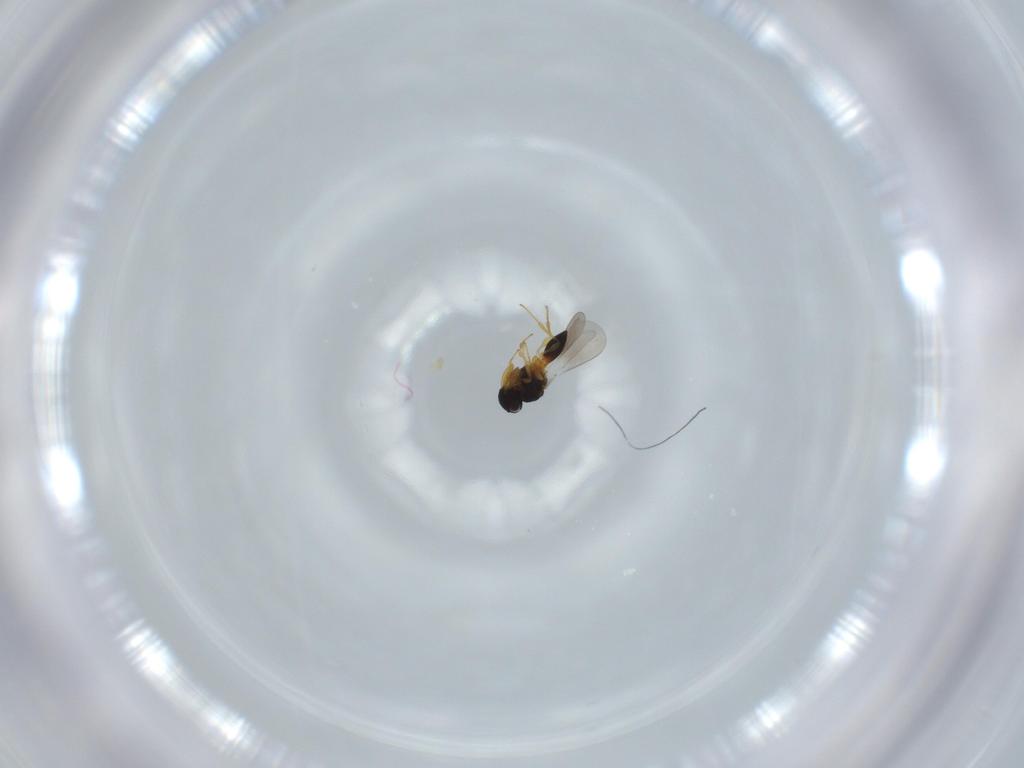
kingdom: Animalia
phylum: Arthropoda
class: Insecta
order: Hymenoptera
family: Platygastridae
